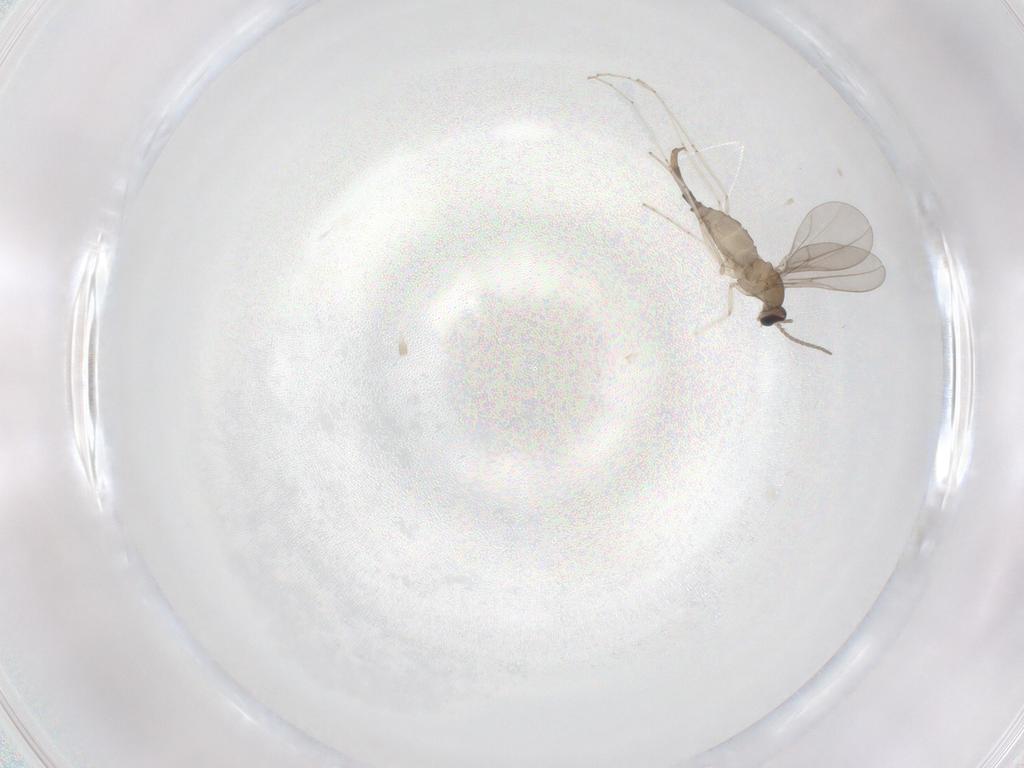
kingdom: Animalia
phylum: Arthropoda
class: Insecta
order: Diptera
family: Cecidomyiidae
